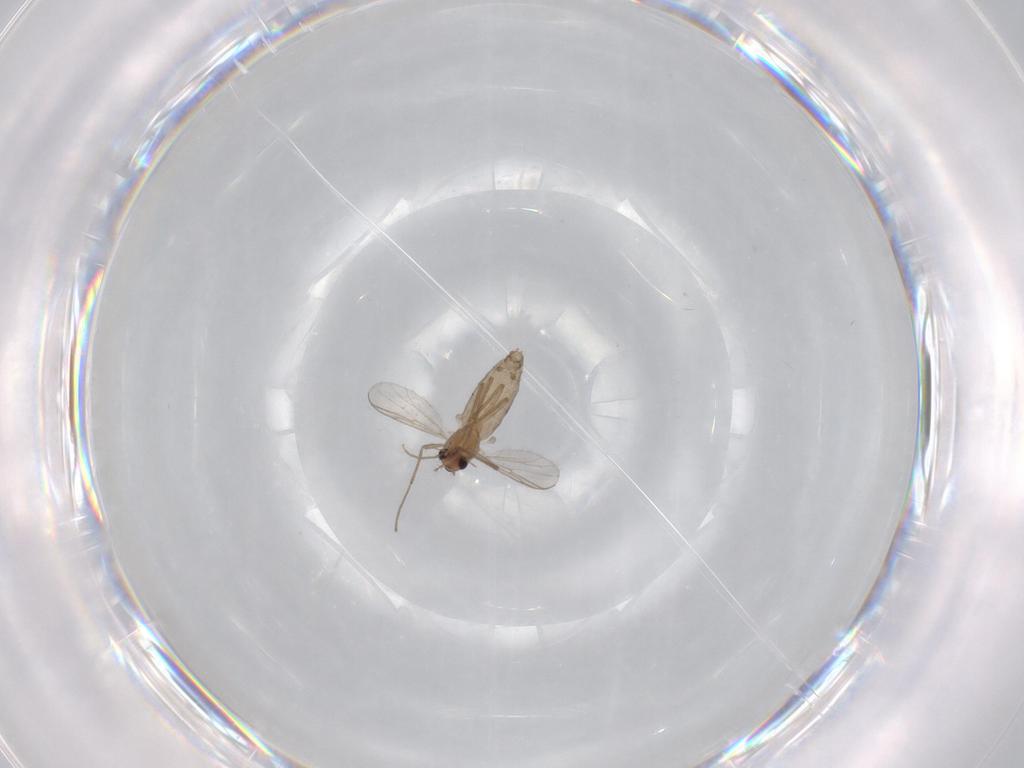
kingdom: Animalia
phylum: Arthropoda
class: Insecta
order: Diptera
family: Chironomidae
